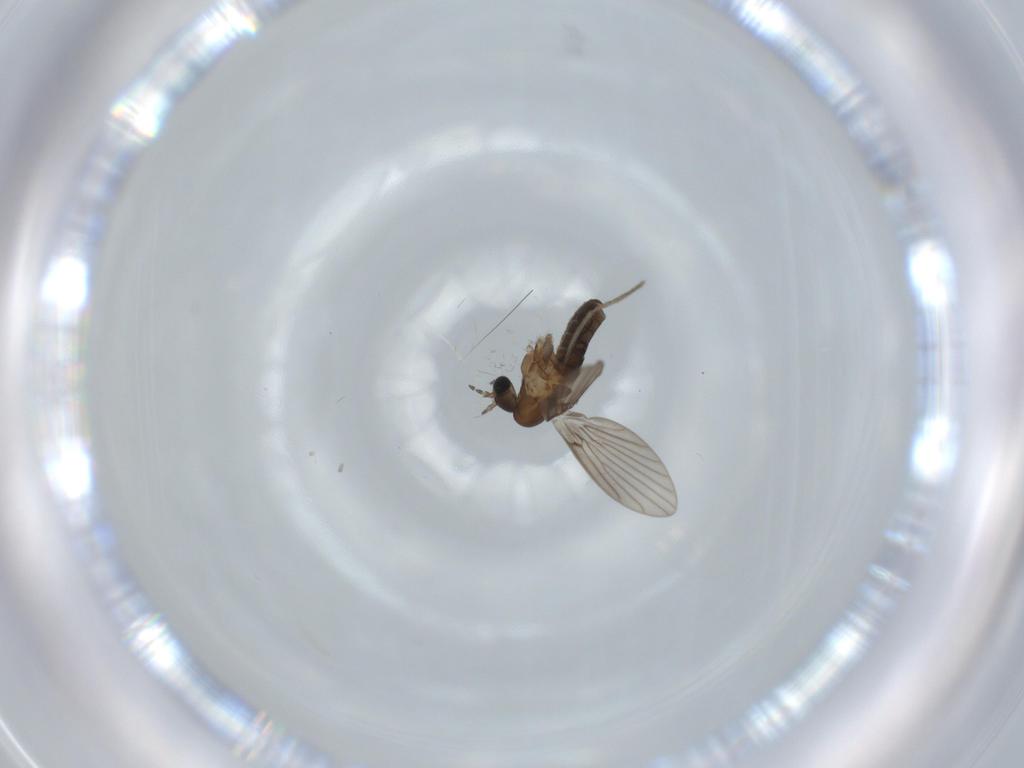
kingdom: Animalia
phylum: Arthropoda
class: Insecta
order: Diptera
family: Psychodidae
